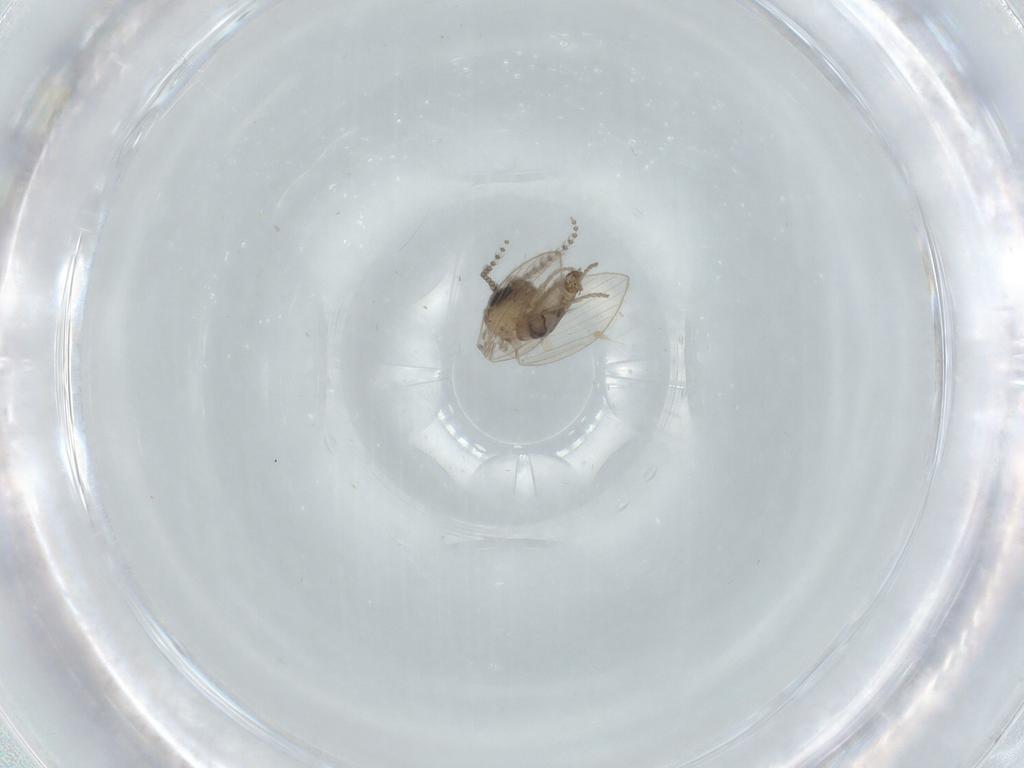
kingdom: Animalia
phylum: Arthropoda
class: Insecta
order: Diptera
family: Psychodidae
